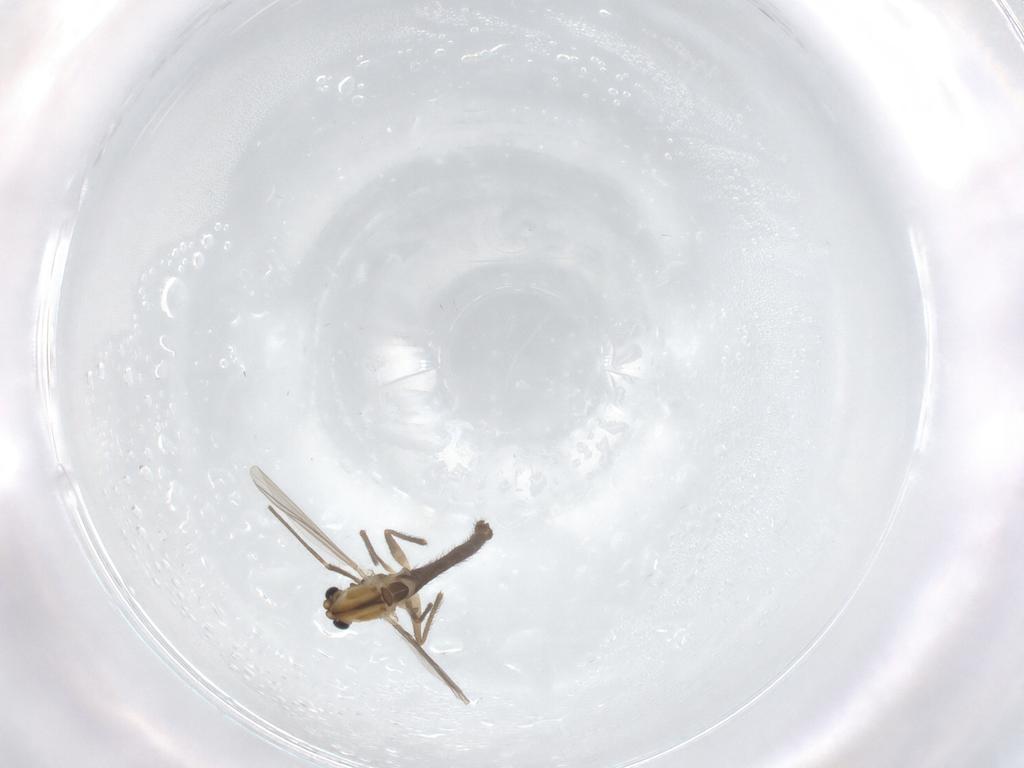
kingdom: Animalia
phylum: Arthropoda
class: Insecta
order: Diptera
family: Chironomidae
